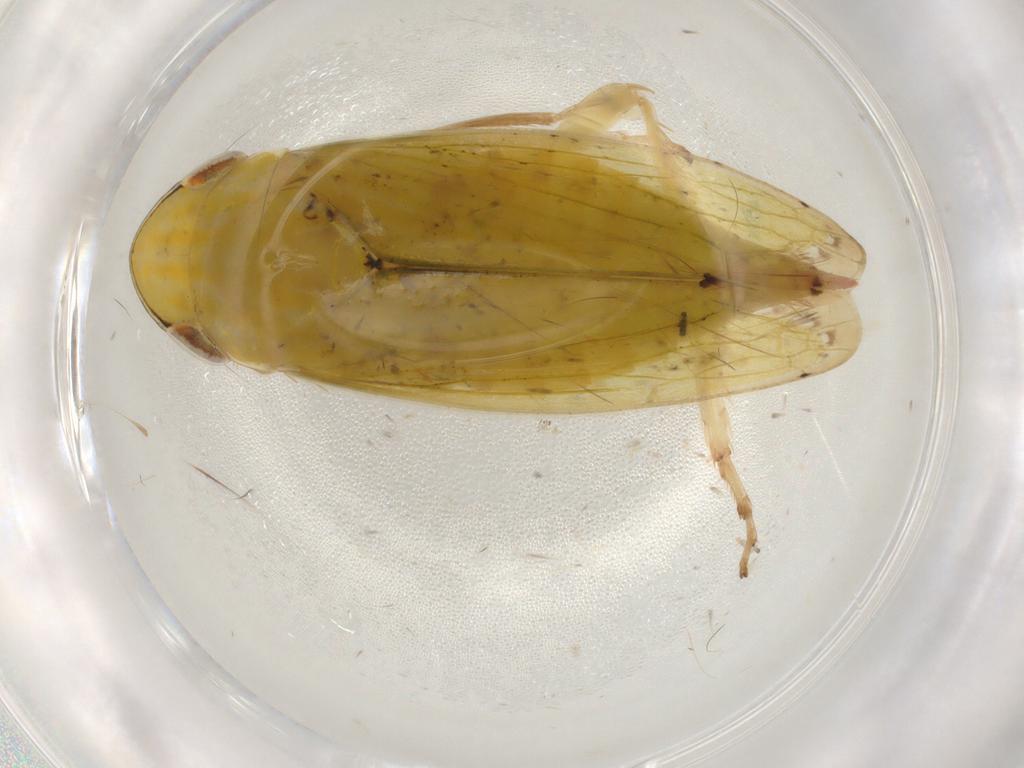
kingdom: Animalia
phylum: Arthropoda
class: Insecta
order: Hemiptera
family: Cicadellidae
